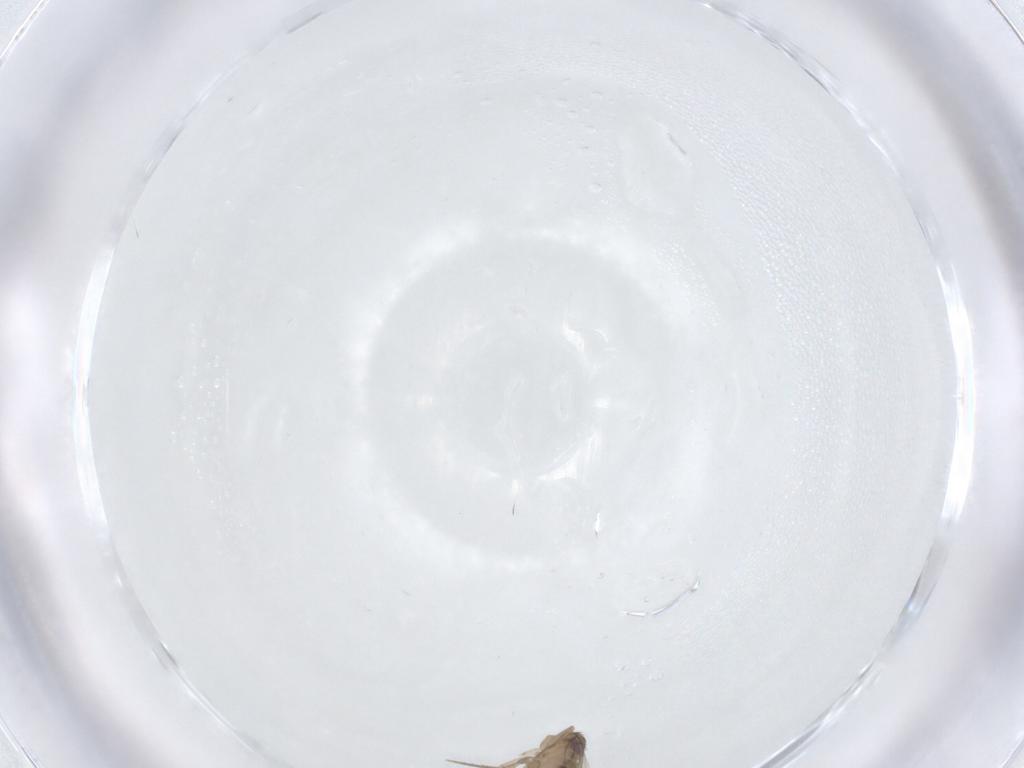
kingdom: Animalia
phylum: Arthropoda
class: Insecta
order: Diptera
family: Phoridae
